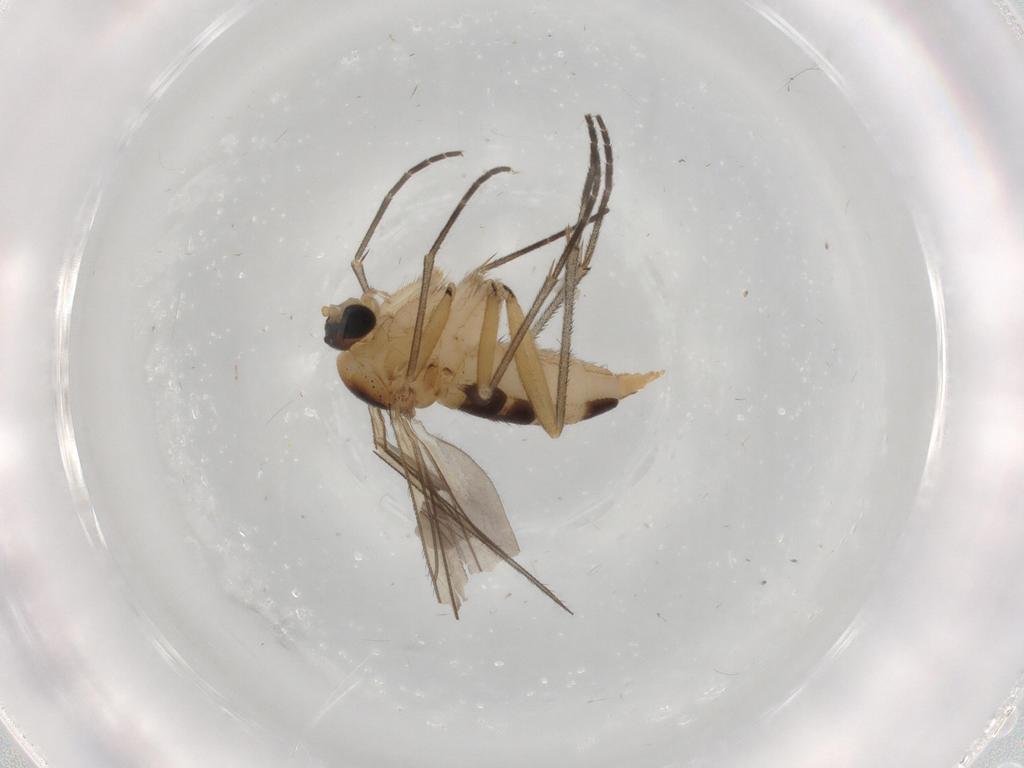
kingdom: Animalia
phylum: Arthropoda
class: Insecta
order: Diptera
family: Sciaridae
